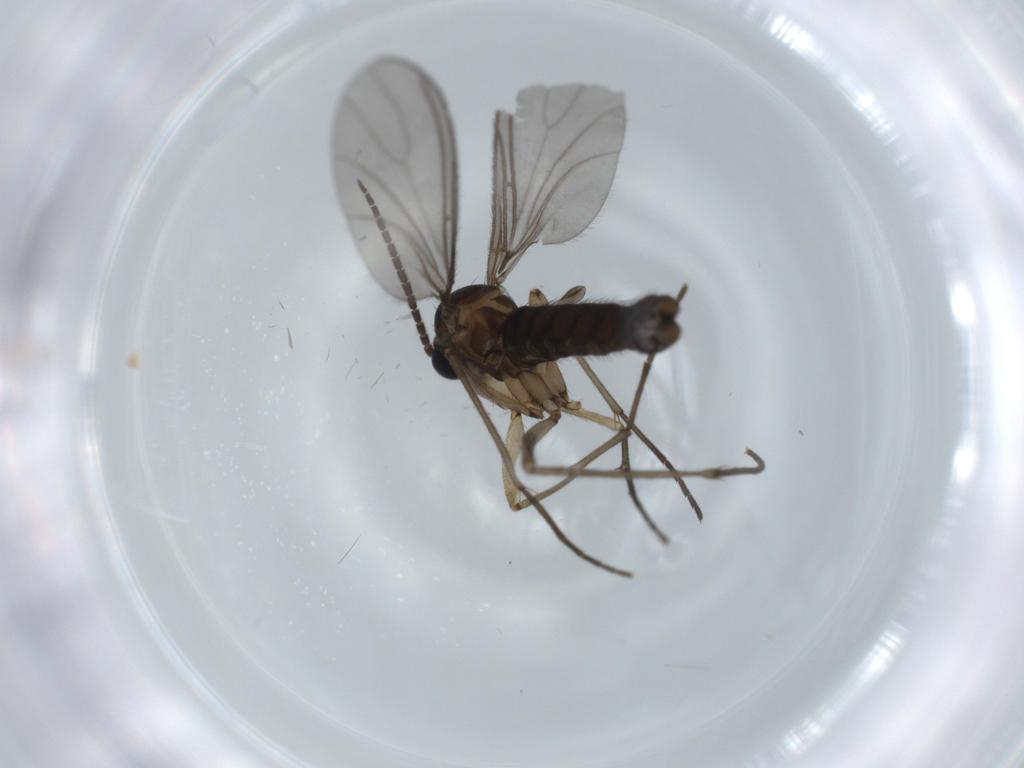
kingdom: Animalia
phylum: Arthropoda
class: Insecta
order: Diptera
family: Sciaridae
